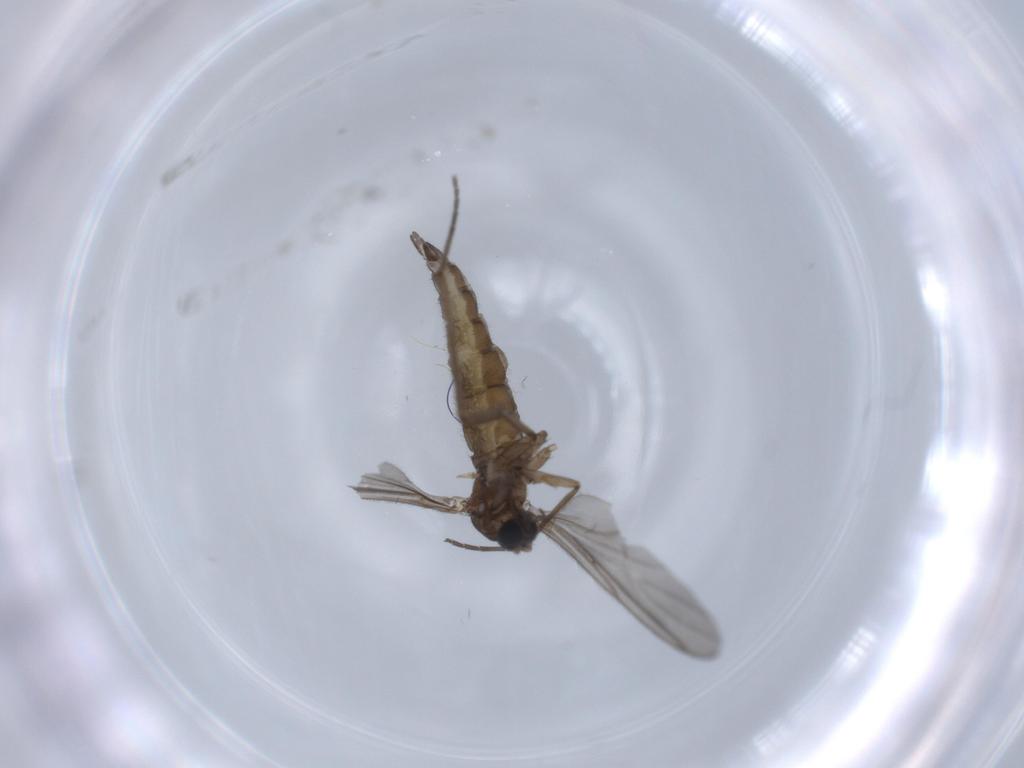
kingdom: Animalia
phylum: Arthropoda
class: Insecta
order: Diptera
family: Sciaridae
